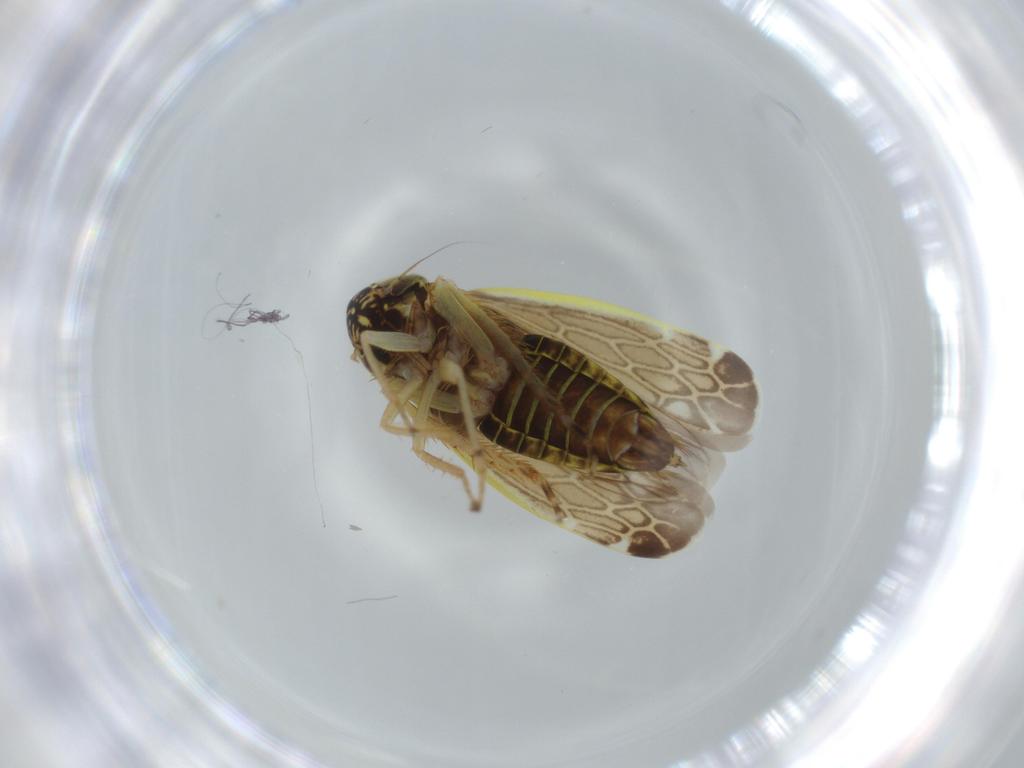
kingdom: Animalia
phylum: Arthropoda
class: Insecta
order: Hemiptera
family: Cicadellidae
